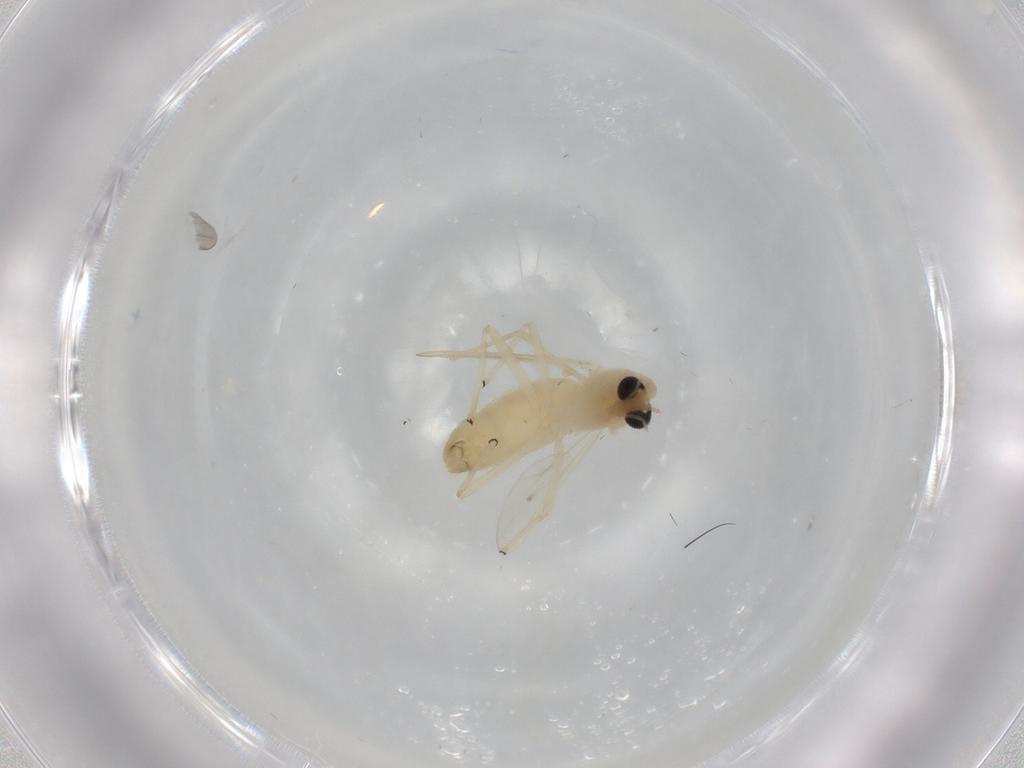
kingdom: Animalia
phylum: Arthropoda
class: Insecta
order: Diptera
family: Chironomidae
